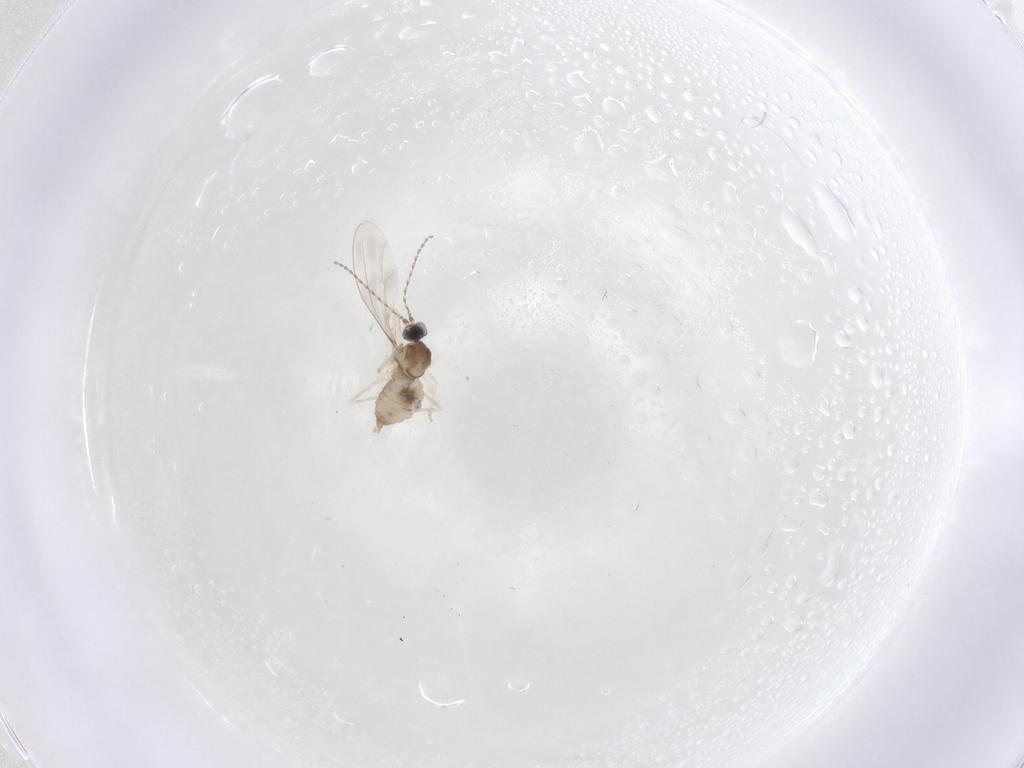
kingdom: Animalia
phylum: Arthropoda
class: Insecta
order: Diptera
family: Cecidomyiidae
